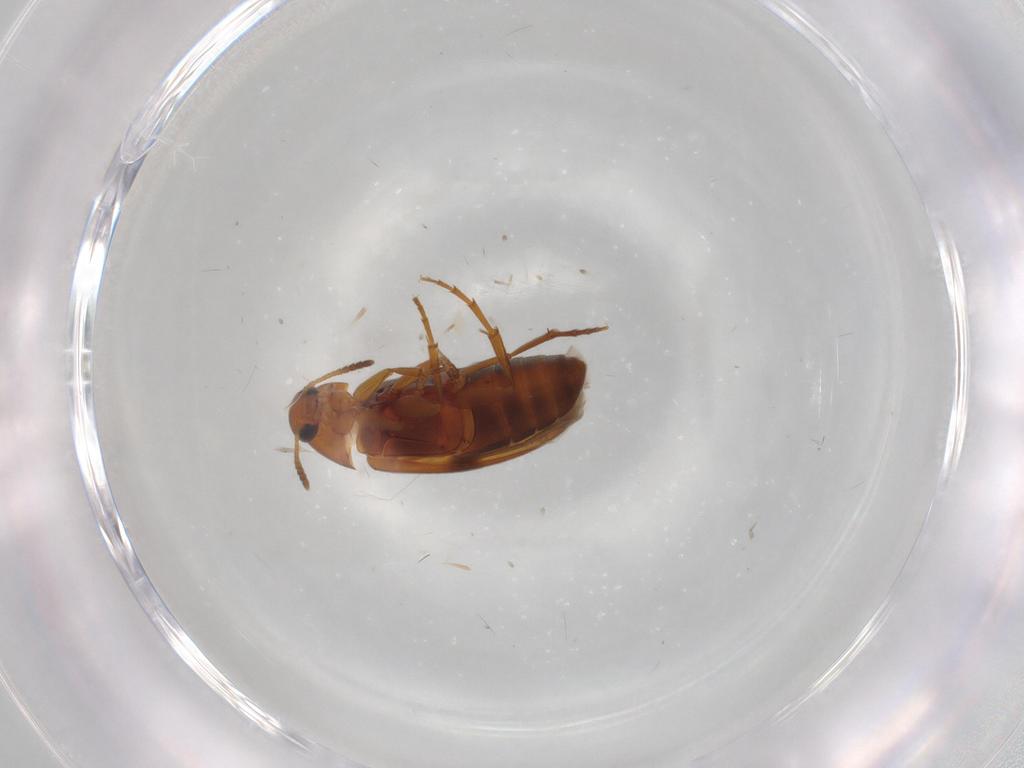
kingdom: Animalia
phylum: Arthropoda
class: Insecta
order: Coleoptera
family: Scraptiidae
